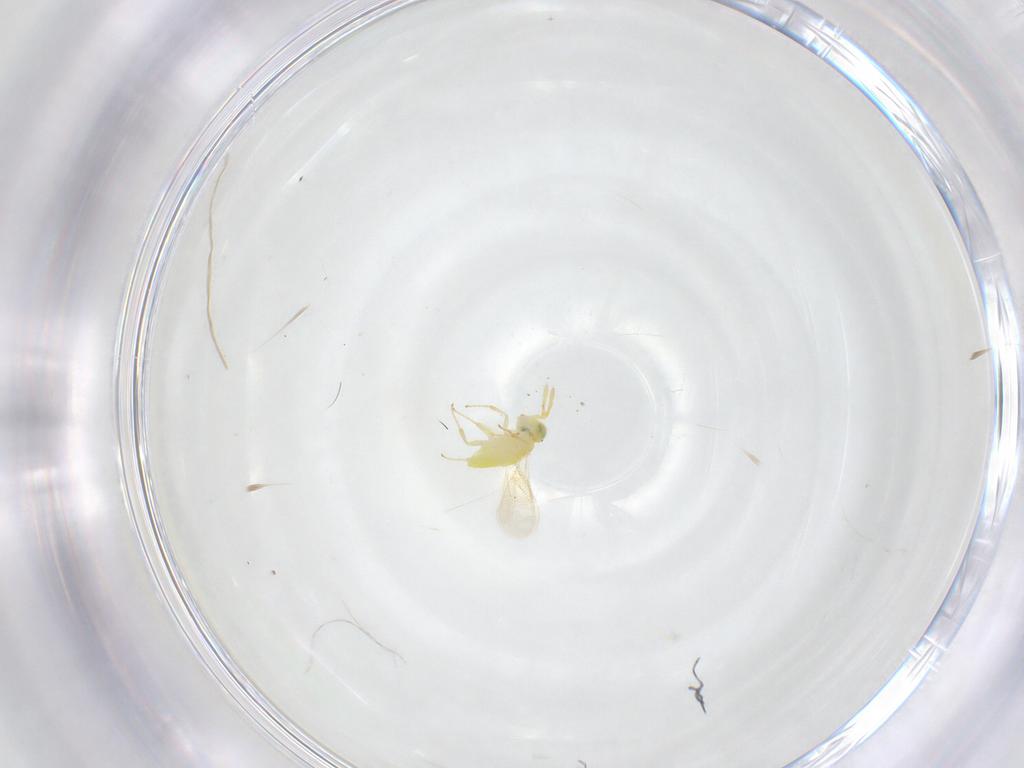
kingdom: Animalia
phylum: Arthropoda
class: Insecta
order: Hymenoptera
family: Aphelinidae
